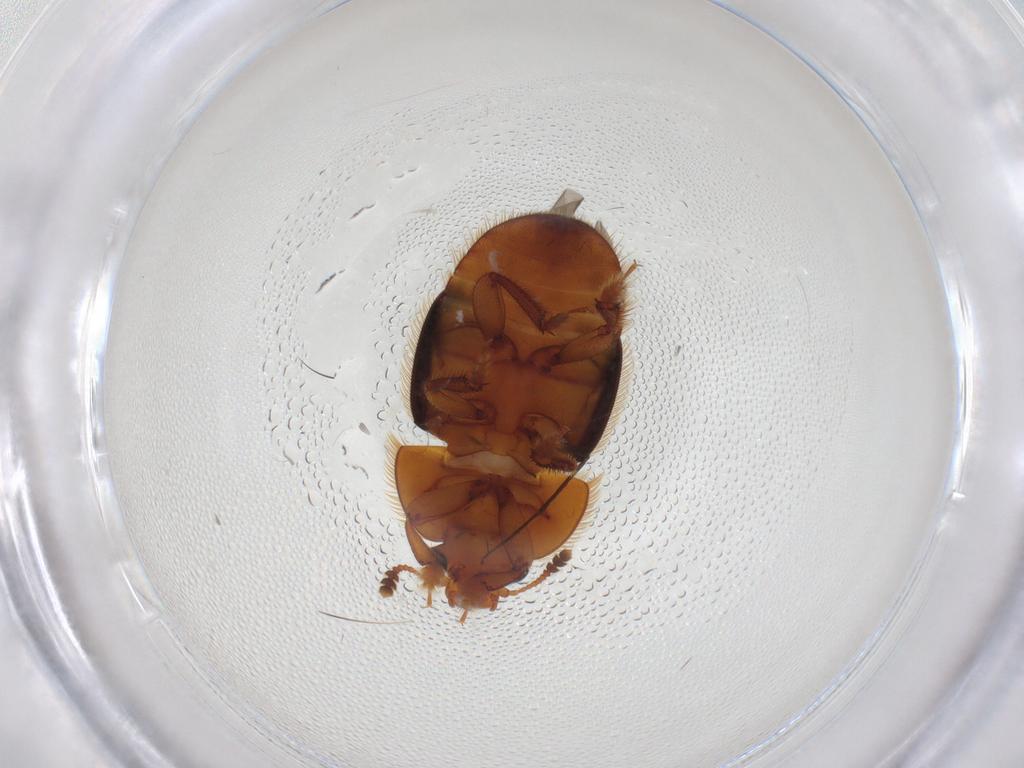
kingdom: Animalia
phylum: Arthropoda
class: Insecta
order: Coleoptera
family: Nitidulidae
